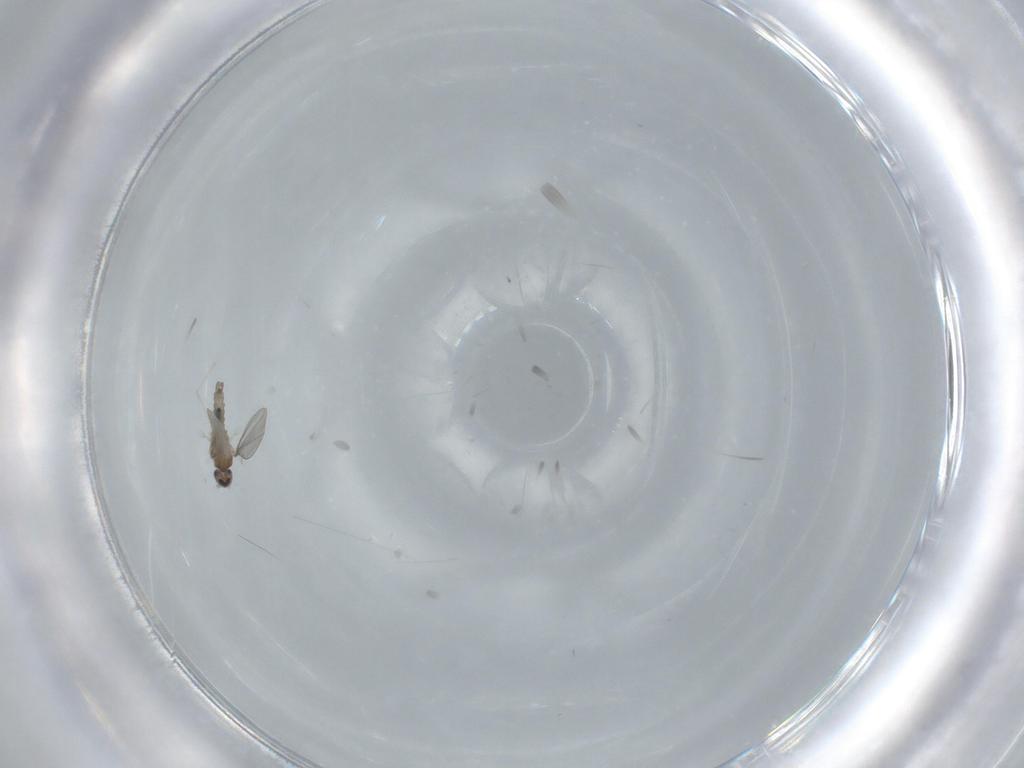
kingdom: Animalia
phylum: Arthropoda
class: Insecta
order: Diptera
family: Cecidomyiidae
